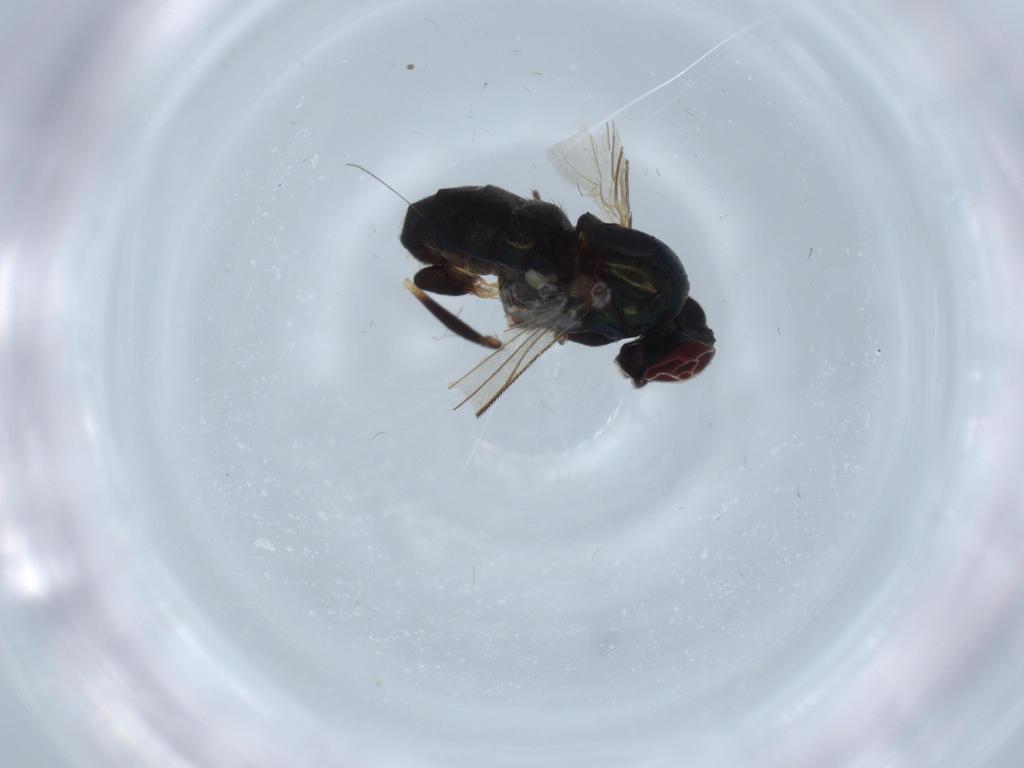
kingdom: Animalia
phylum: Arthropoda
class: Insecta
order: Diptera
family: Dolichopodidae
